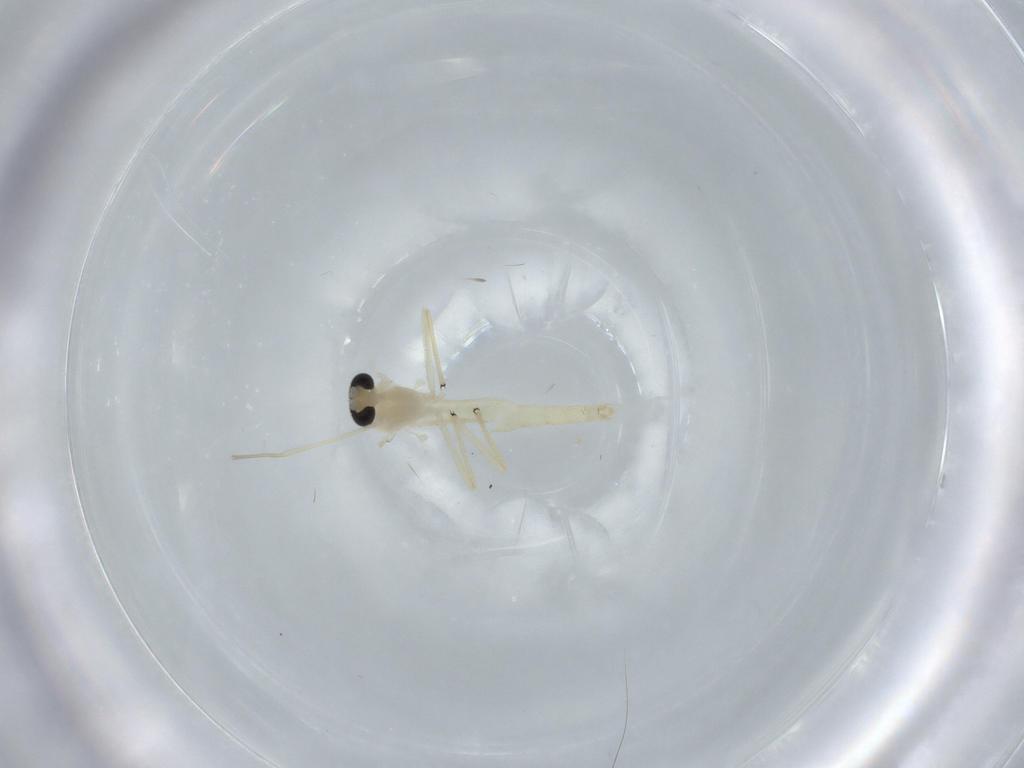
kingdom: Animalia
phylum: Arthropoda
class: Insecta
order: Diptera
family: Chironomidae
